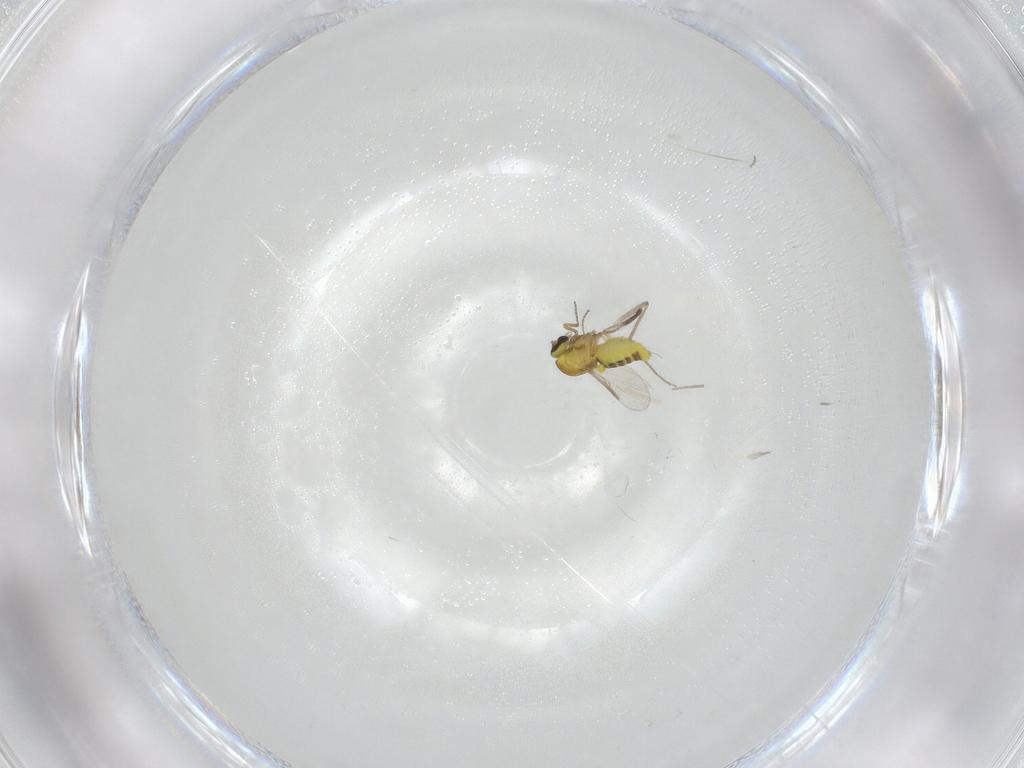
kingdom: Animalia
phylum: Arthropoda
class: Insecta
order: Diptera
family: Ceratopogonidae
